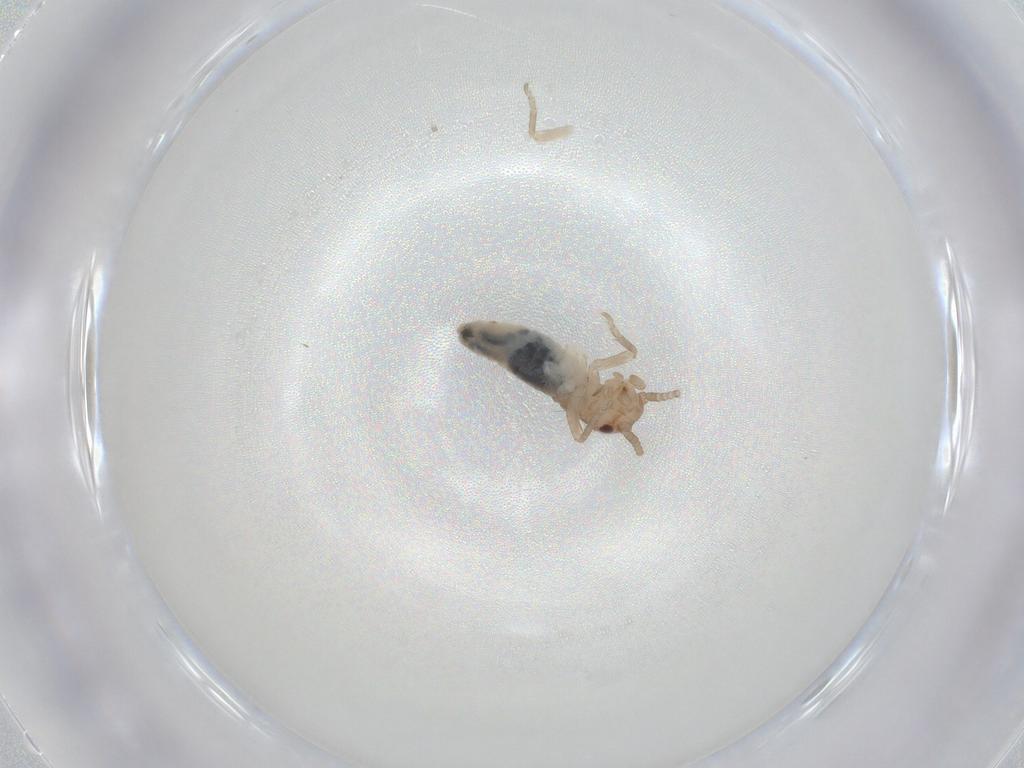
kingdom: Animalia
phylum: Arthropoda
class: Insecta
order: Orthoptera
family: Gryllidae
